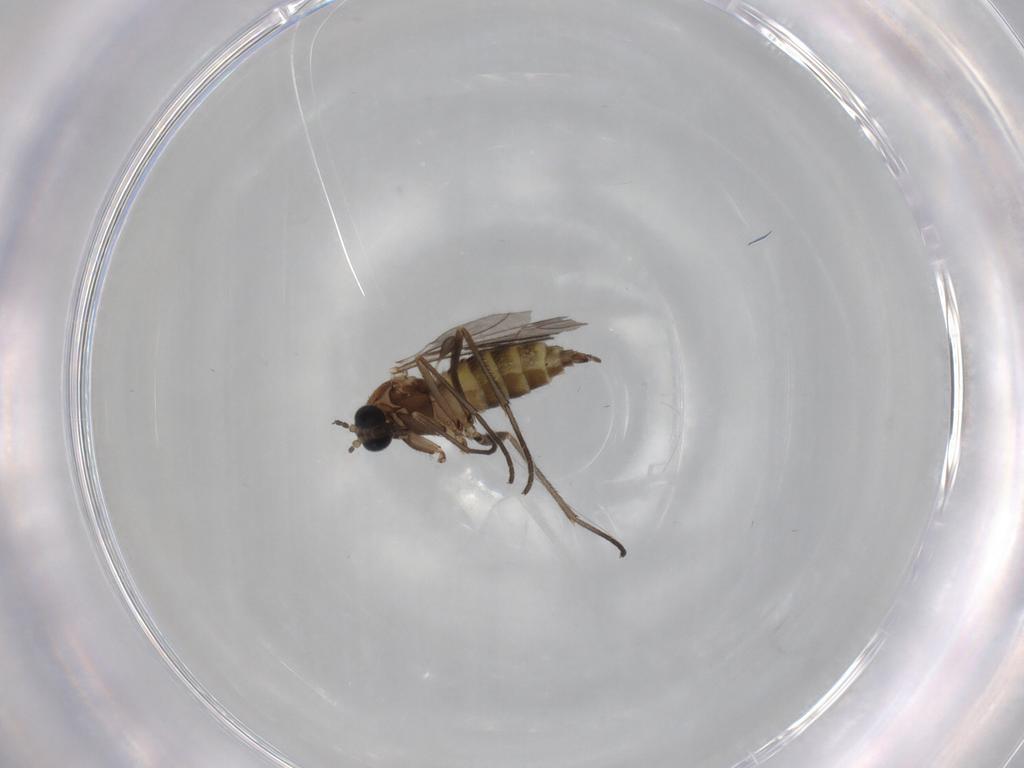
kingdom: Animalia
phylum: Arthropoda
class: Insecta
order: Diptera
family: Sciaridae
